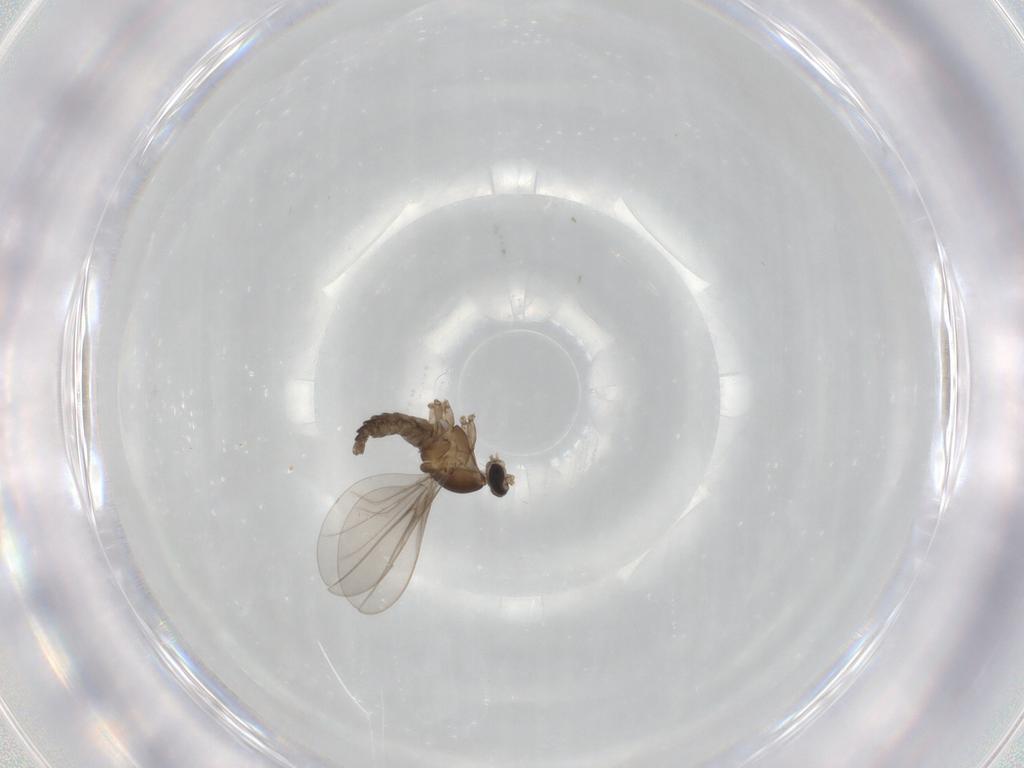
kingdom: Animalia
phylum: Arthropoda
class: Insecta
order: Diptera
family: Cecidomyiidae
